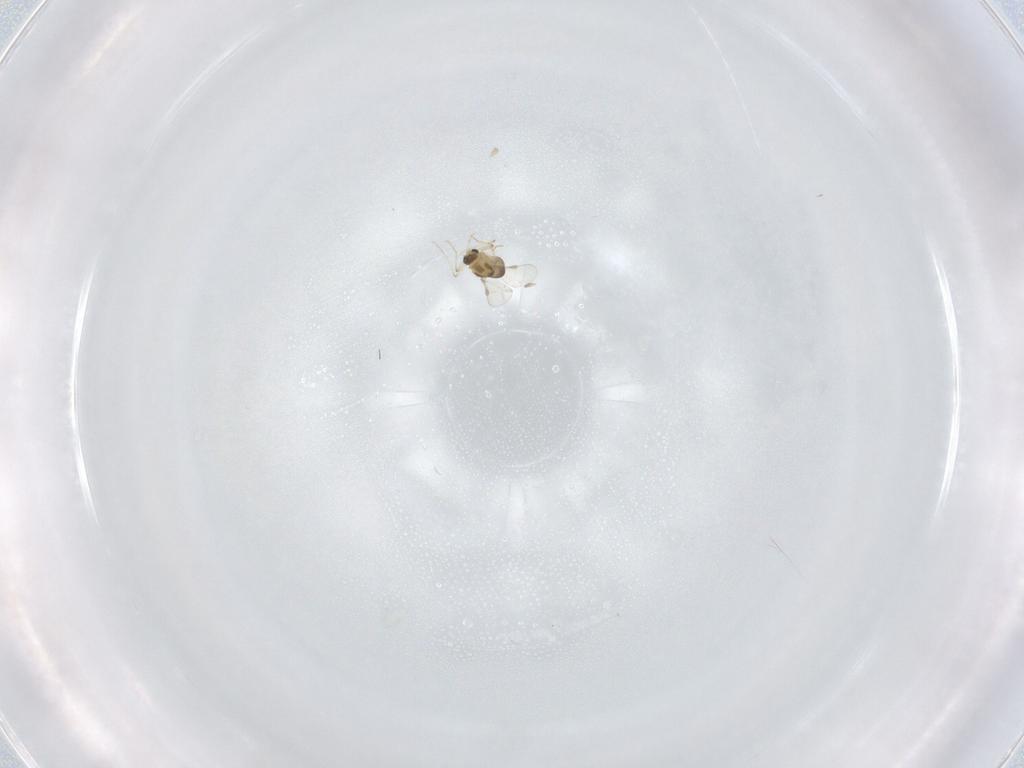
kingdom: Animalia
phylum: Arthropoda
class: Insecta
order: Diptera
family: Chironomidae
